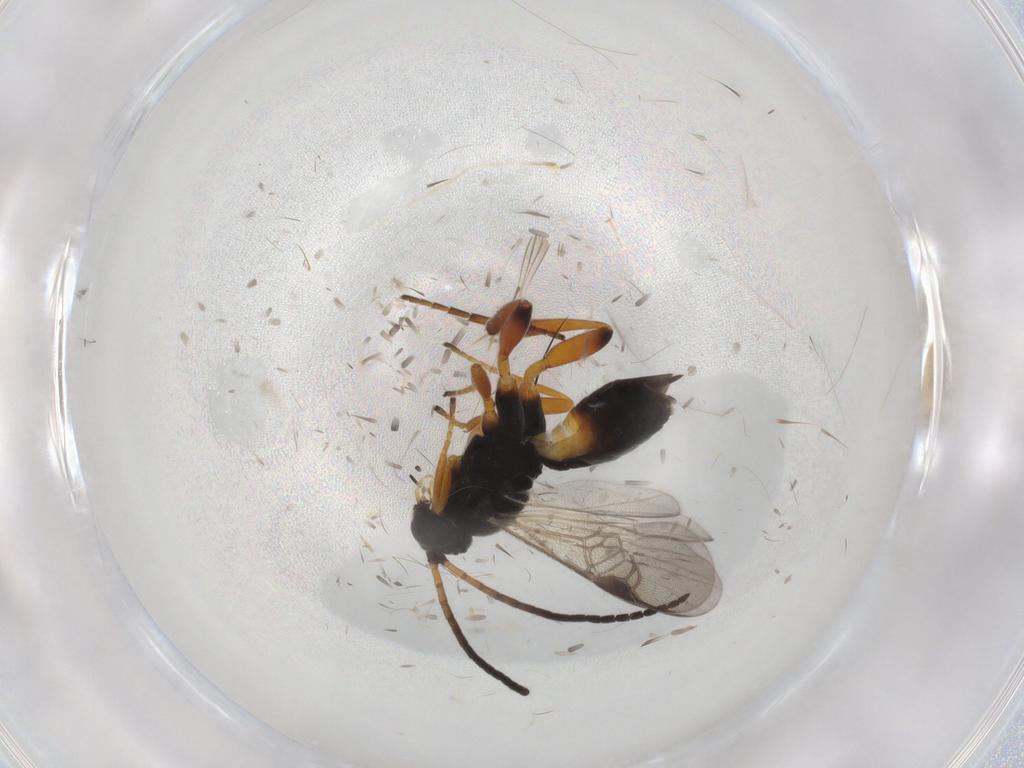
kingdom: Animalia
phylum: Arthropoda
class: Insecta
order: Hymenoptera
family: Braconidae
